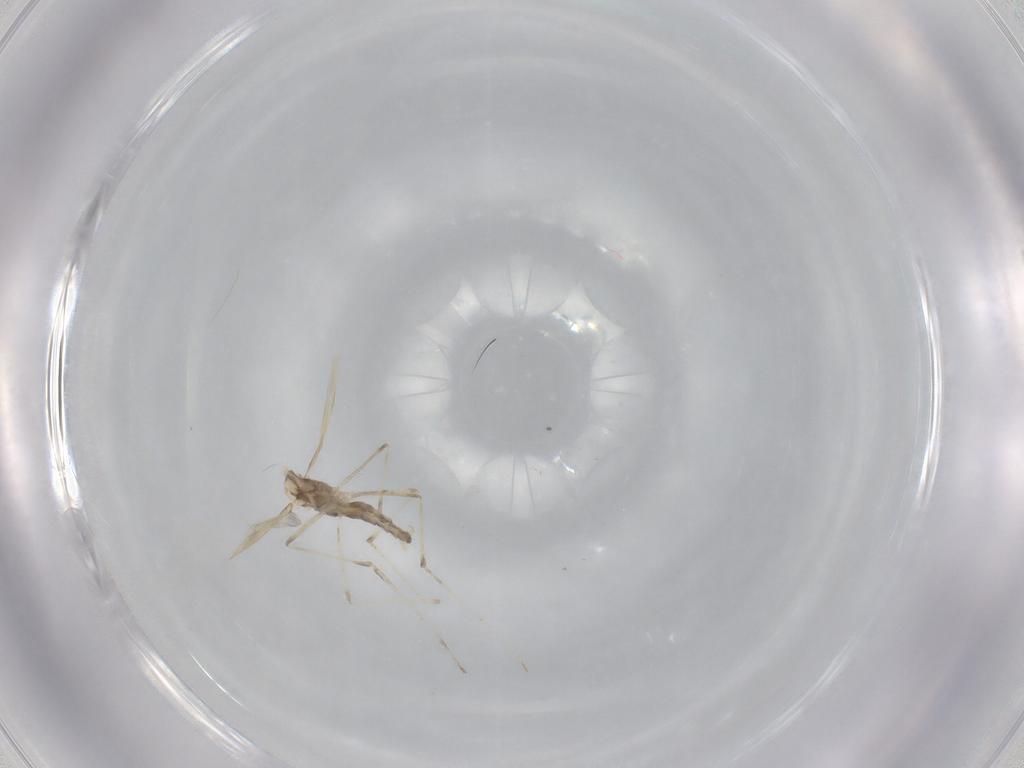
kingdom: Animalia
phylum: Arthropoda
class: Insecta
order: Diptera
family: Cecidomyiidae
